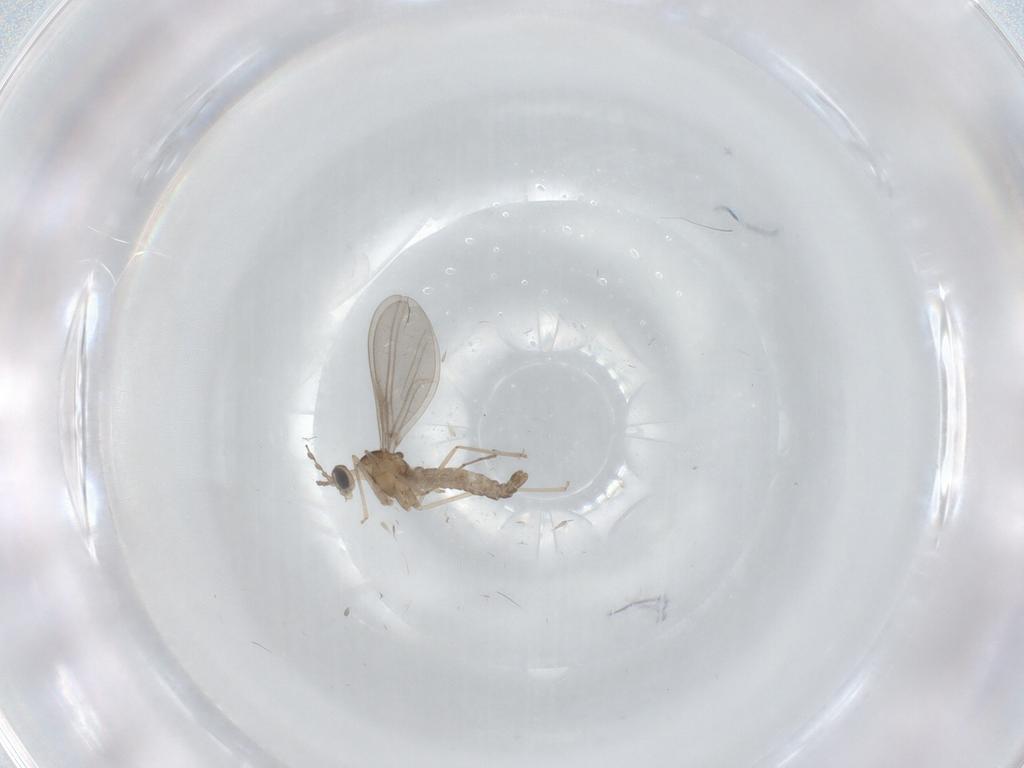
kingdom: Animalia
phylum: Arthropoda
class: Insecta
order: Diptera
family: Cecidomyiidae
